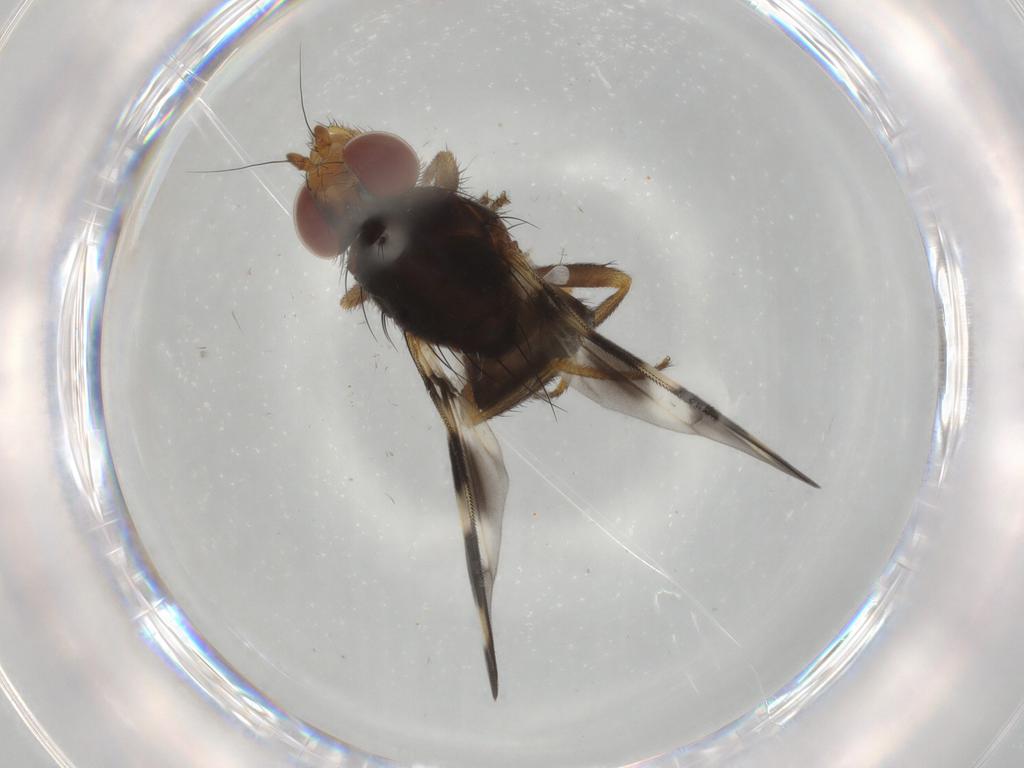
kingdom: Animalia
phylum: Arthropoda
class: Insecta
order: Diptera
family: Ulidiidae
